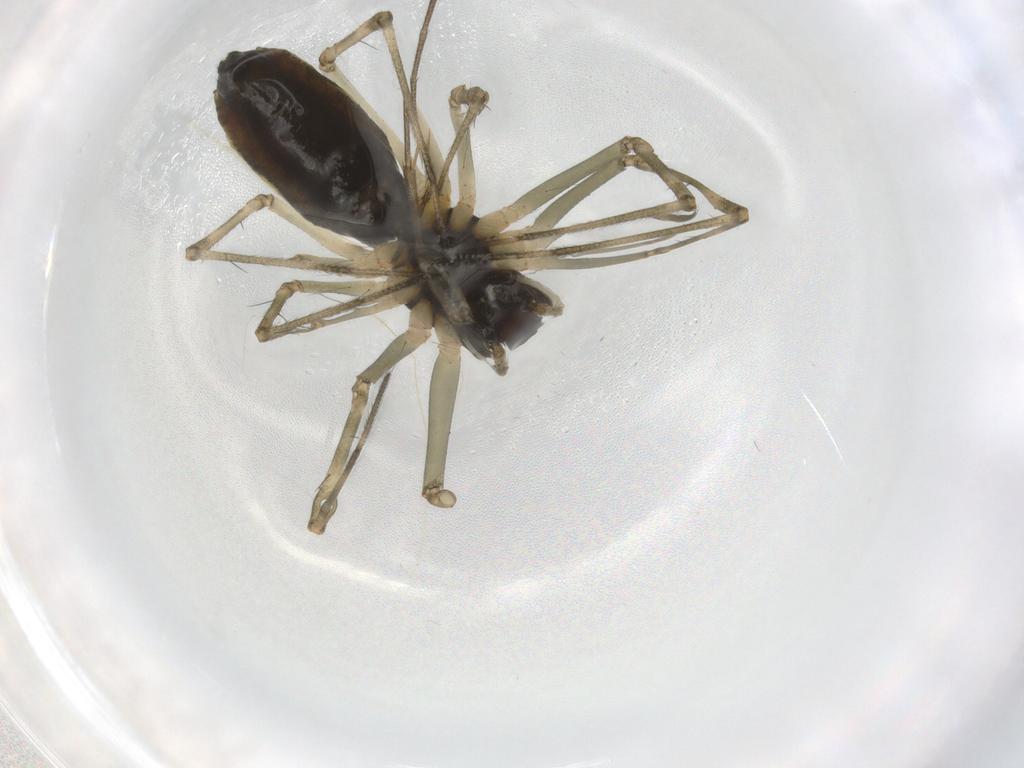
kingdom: Animalia
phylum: Arthropoda
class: Arachnida
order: Araneae
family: Theridiidae
